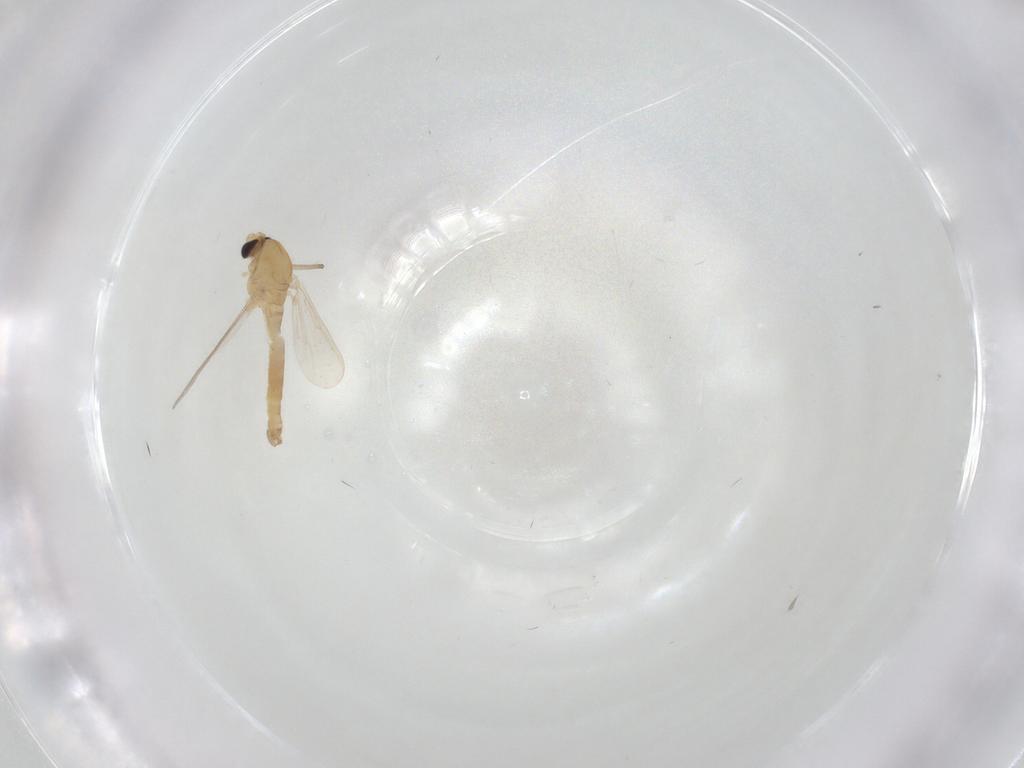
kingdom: Animalia
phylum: Arthropoda
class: Insecta
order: Diptera
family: Chironomidae
